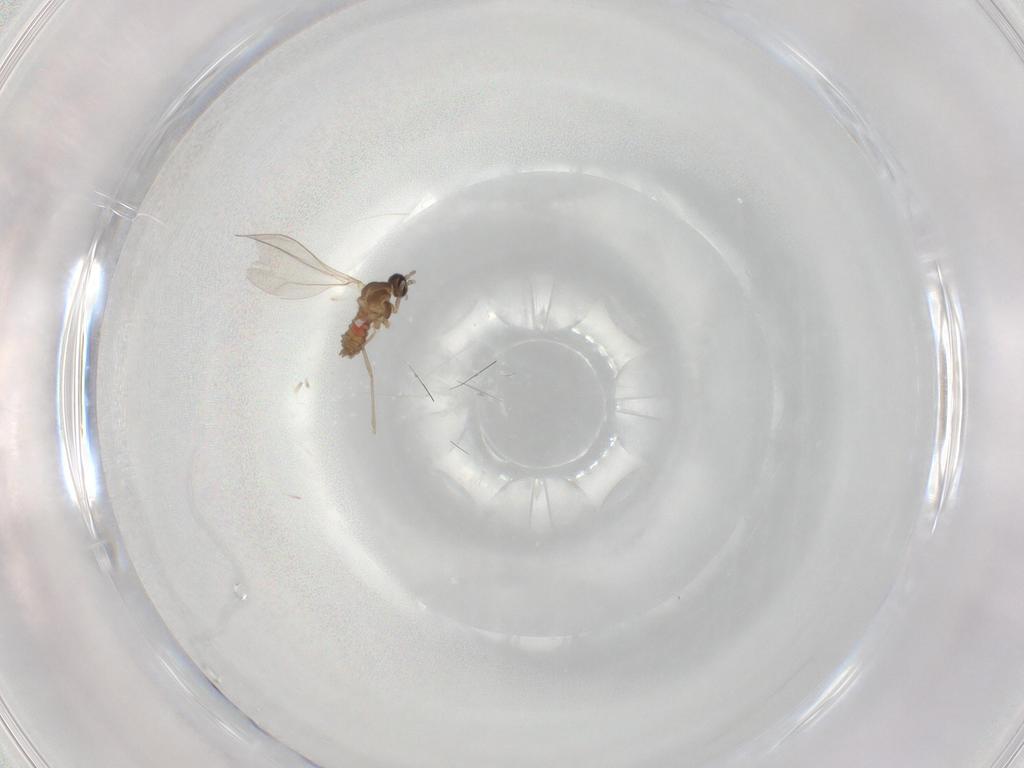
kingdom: Animalia
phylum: Arthropoda
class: Insecta
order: Diptera
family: Cecidomyiidae
